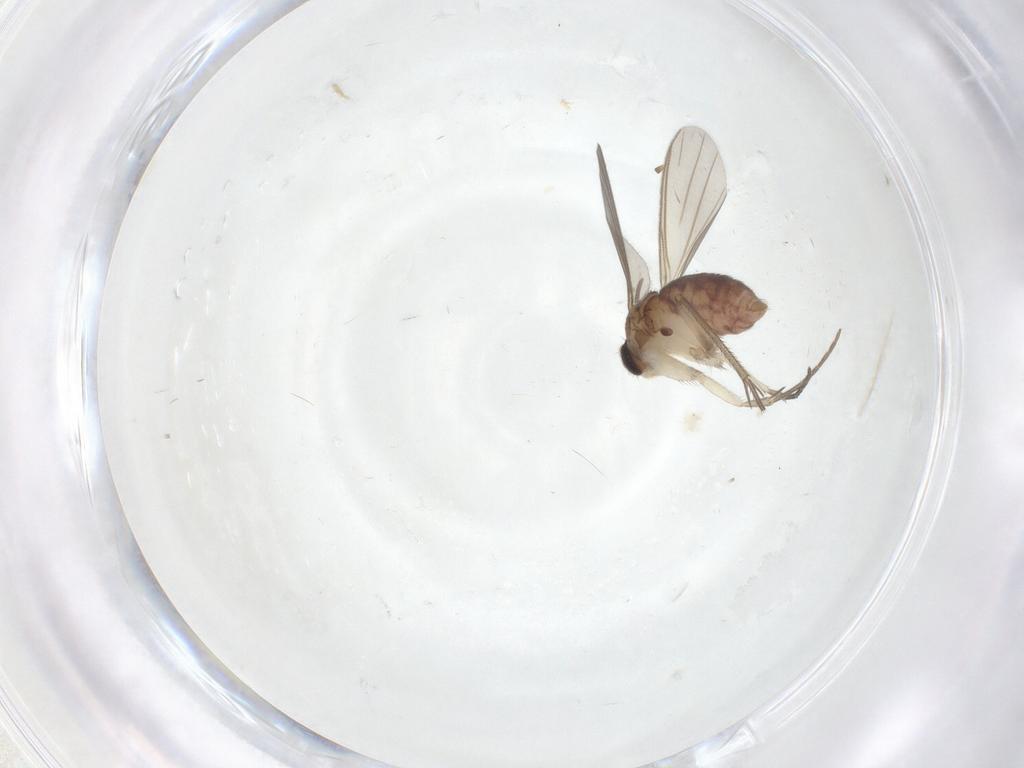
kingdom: Animalia
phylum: Arthropoda
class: Insecta
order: Diptera
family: Mycetophilidae
